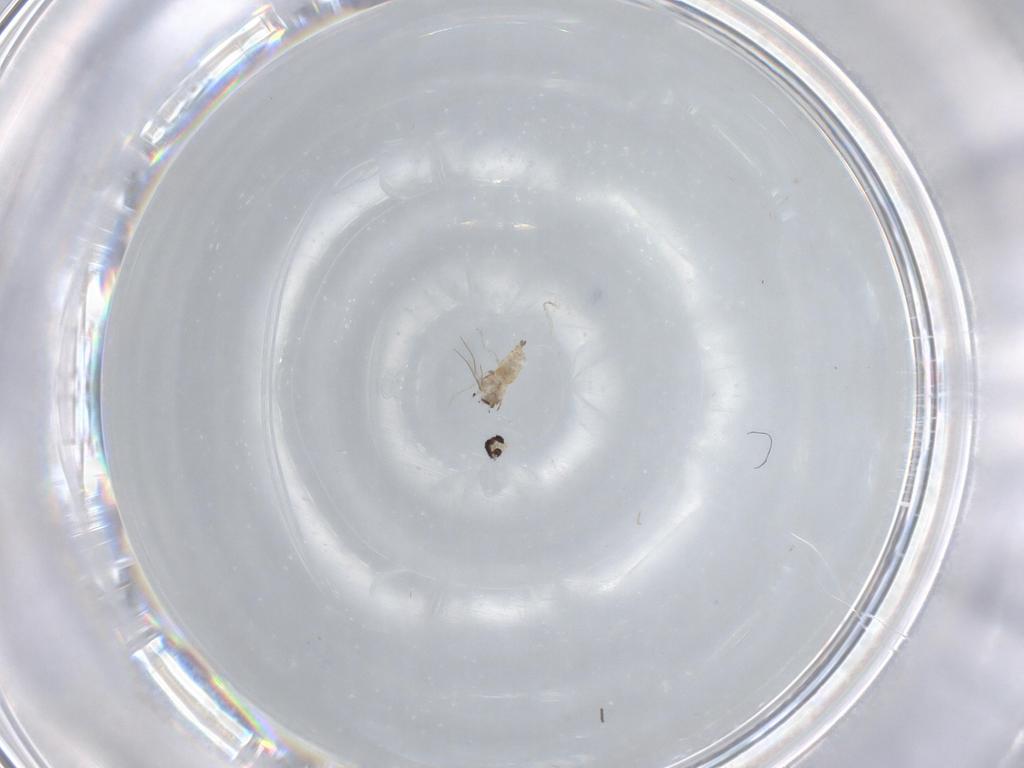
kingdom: Animalia
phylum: Arthropoda
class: Insecta
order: Diptera
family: Cecidomyiidae
